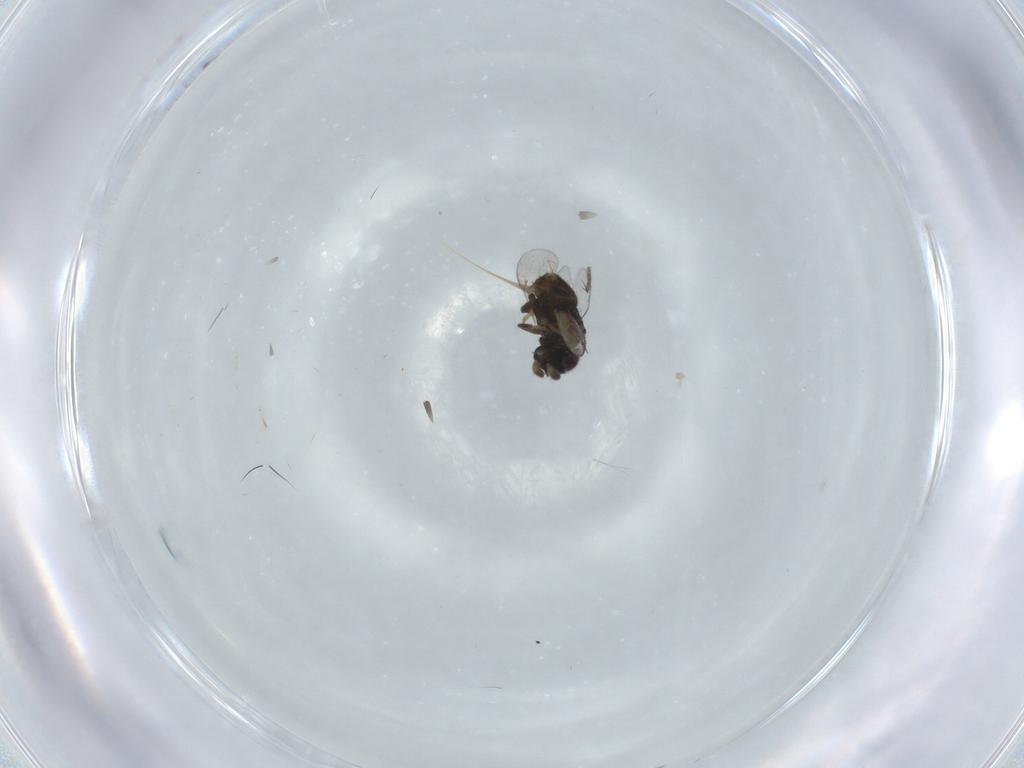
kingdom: Animalia
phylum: Arthropoda
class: Insecta
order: Hymenoptera
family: Encyrtidae
